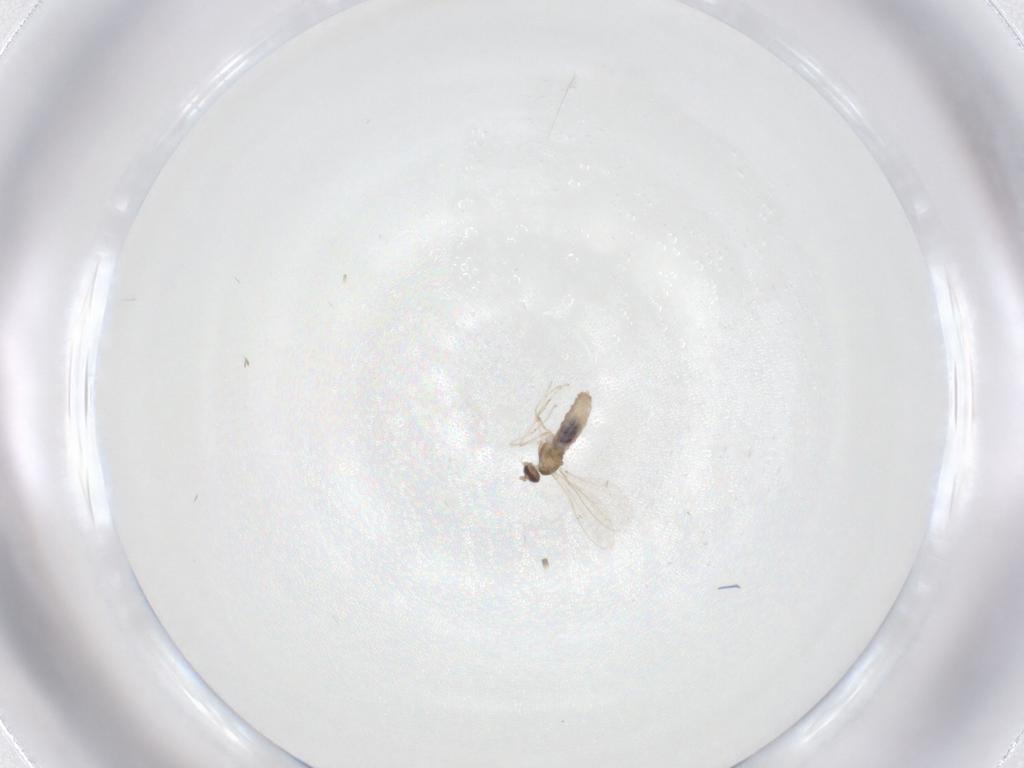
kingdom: Animalia
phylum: Arthropoda
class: Insecta
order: Diptera
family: Cecidomyiidae
